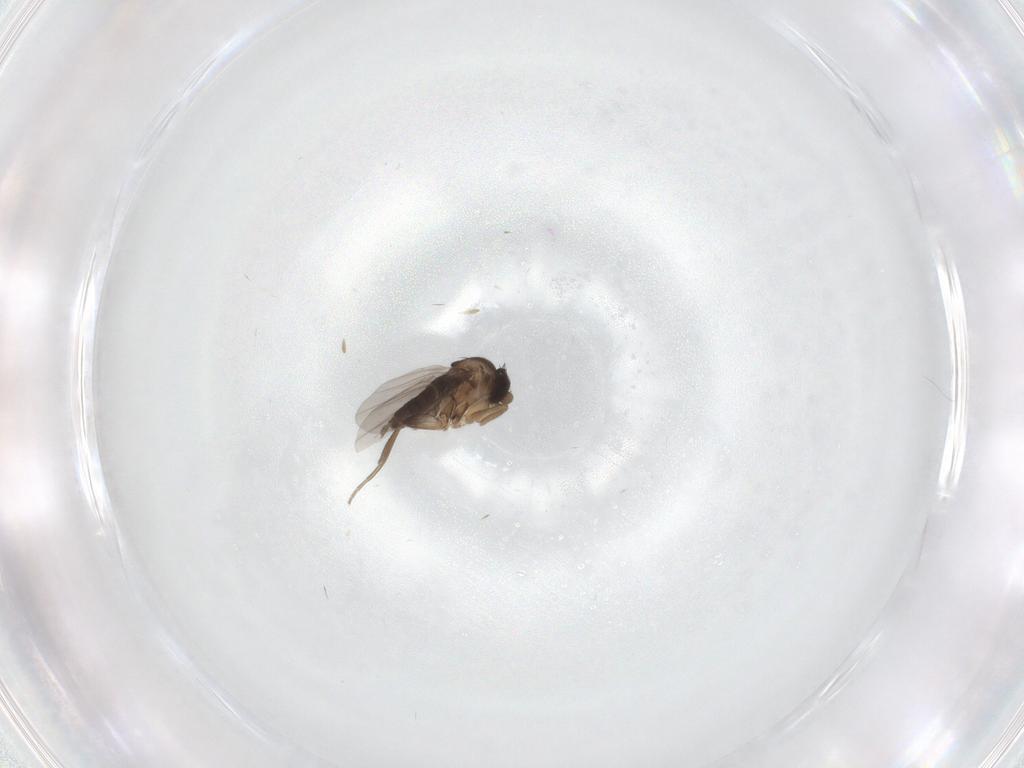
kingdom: Animalia
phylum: Arthropoda
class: Insecta
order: Diptera
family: Phoridae
